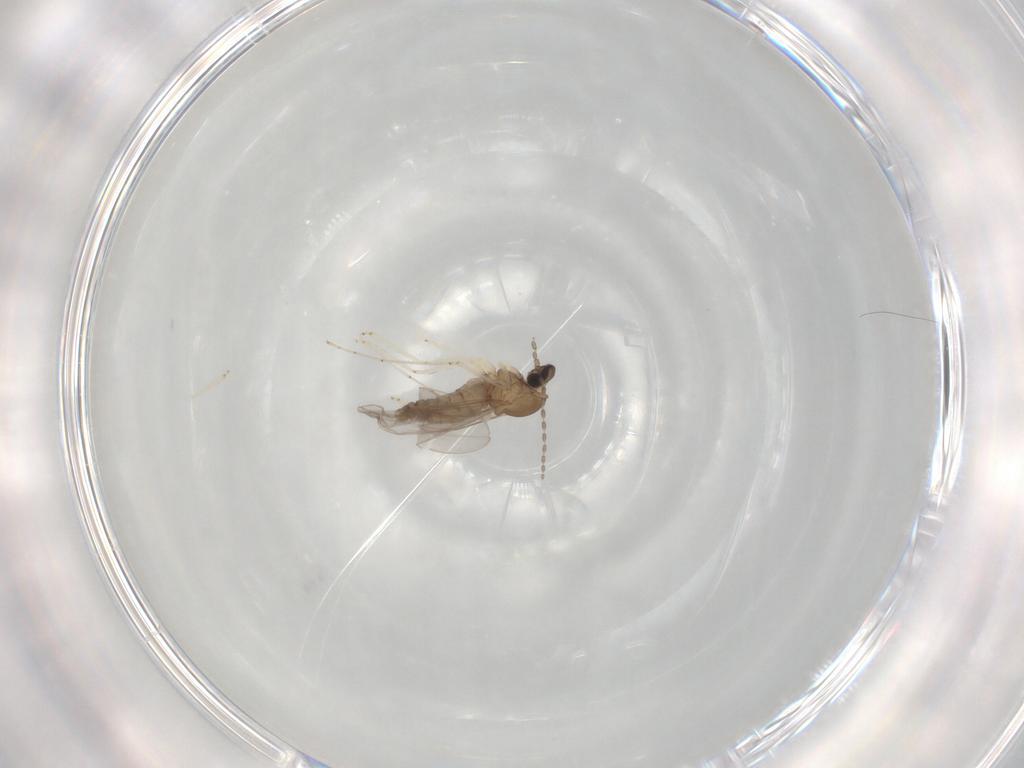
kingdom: Animalia
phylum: Arthropoda
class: Insecta
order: Diptera
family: Cecidomyiidae
